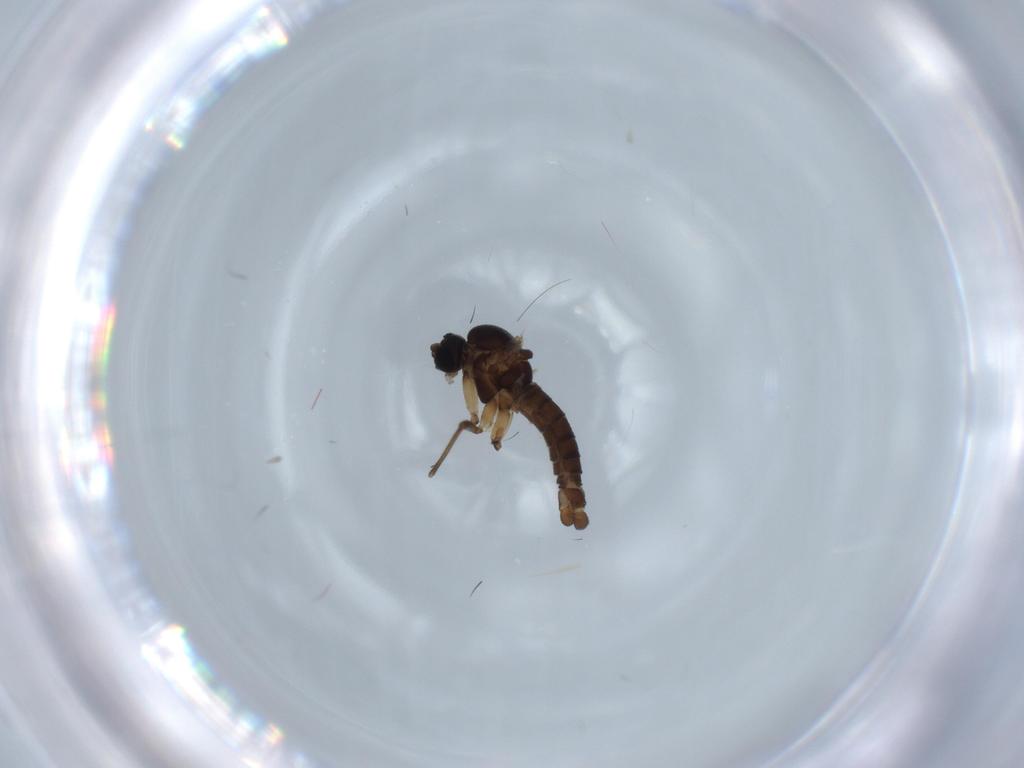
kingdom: Animalia
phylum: Arthropoda
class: Insecta
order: Diptera
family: Sciaridae
